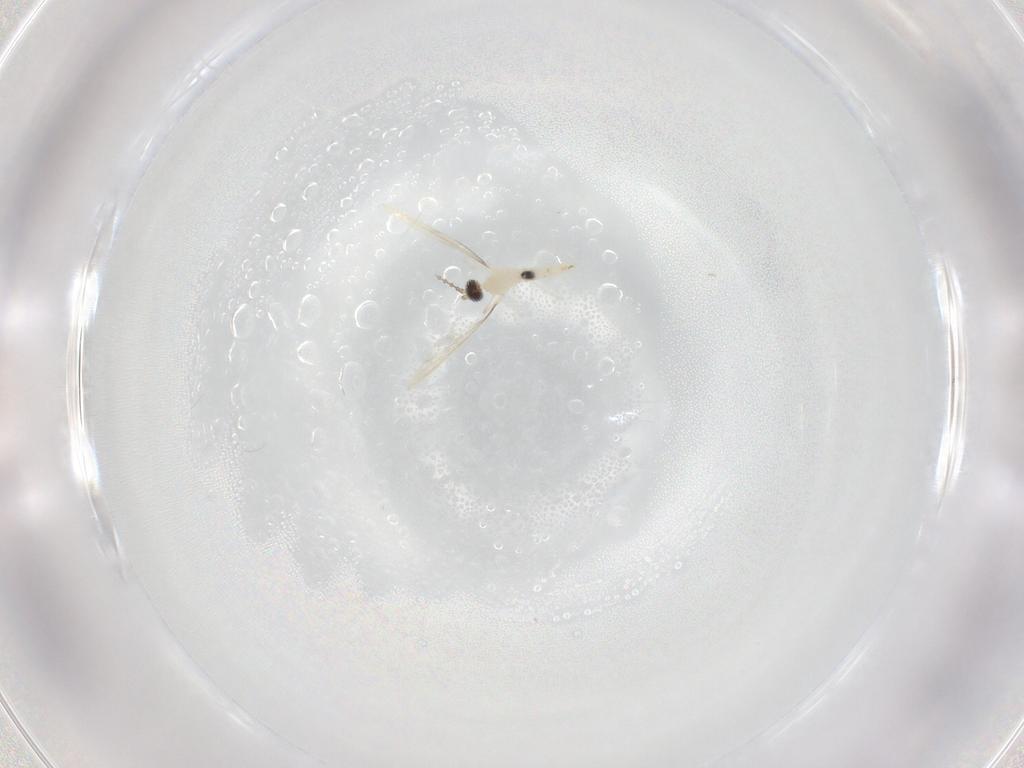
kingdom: Animalia
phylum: Arthropoda
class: Insecta
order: Diptera
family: Cecidomyiidae
